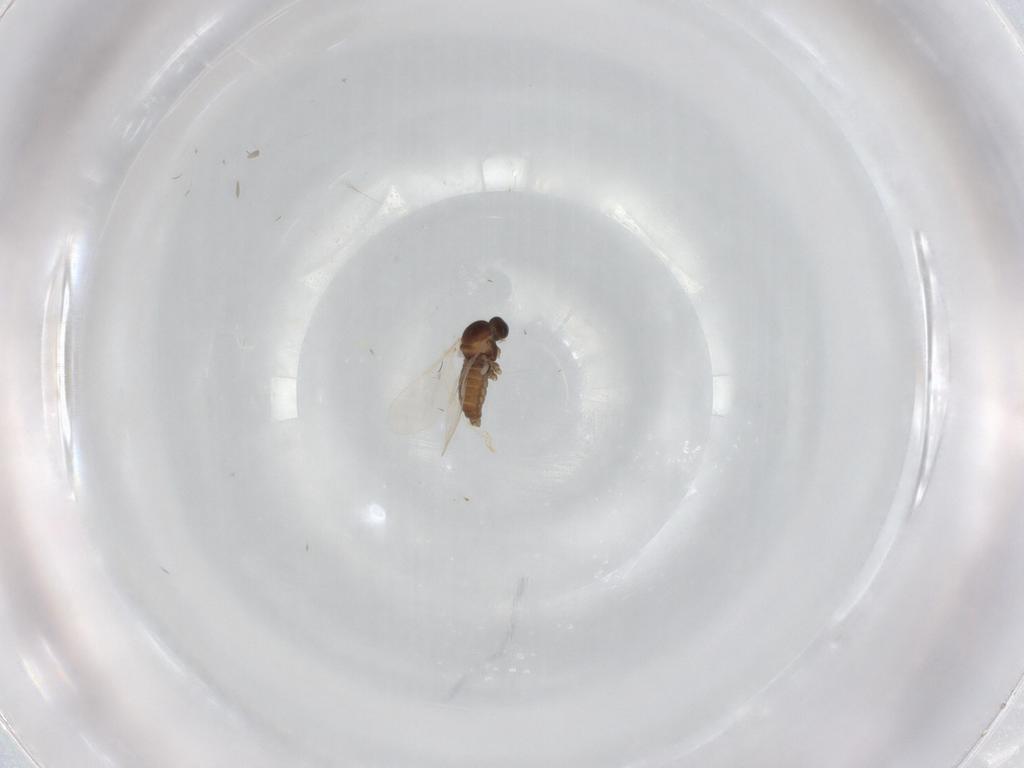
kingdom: Animalia
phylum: Arthropoda
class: Insecta
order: Diptera
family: Cecidomyiidae
